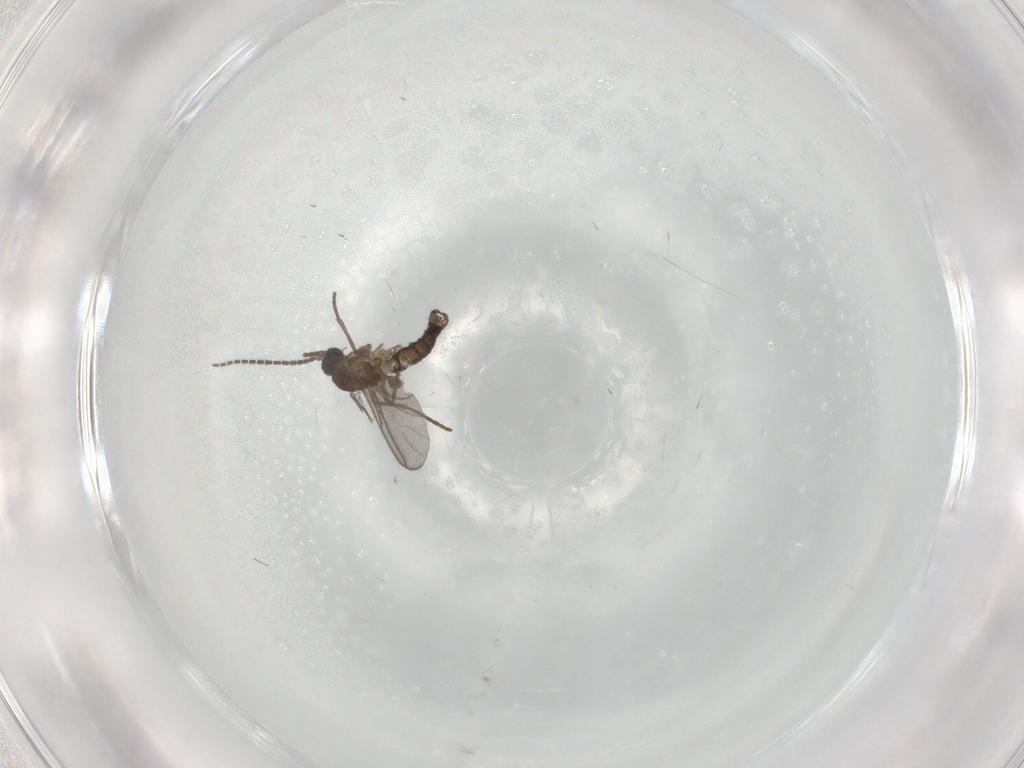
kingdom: Animalia
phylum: Arthropoda
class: Insecta
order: Diptera
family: Sciaridae
